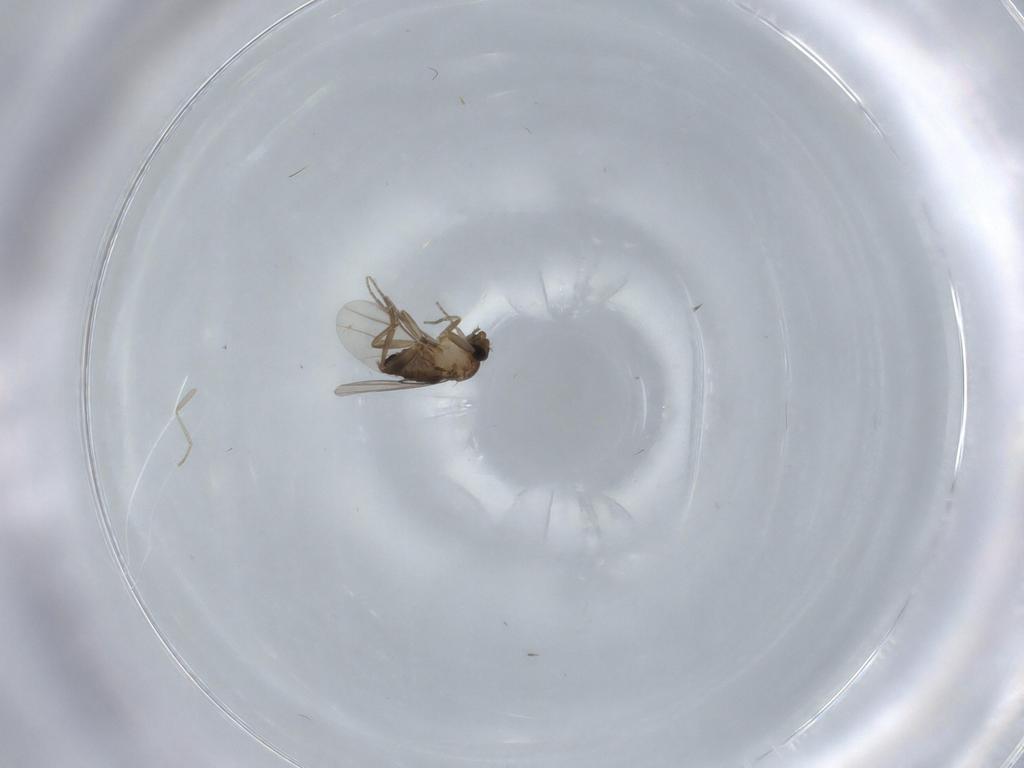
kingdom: Animalia
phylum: Arthropoda
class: Insecta
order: Diptera
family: Phoridae
